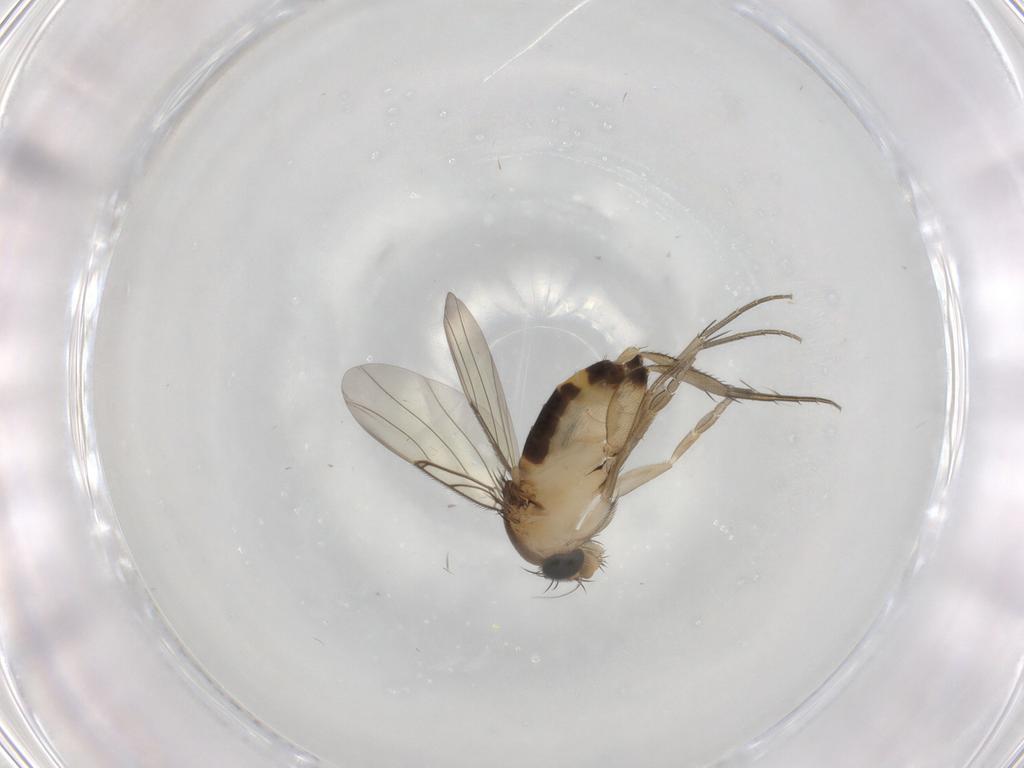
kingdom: Animalia
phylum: Arthropoda
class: Insecta
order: Diptera
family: Phoridae
